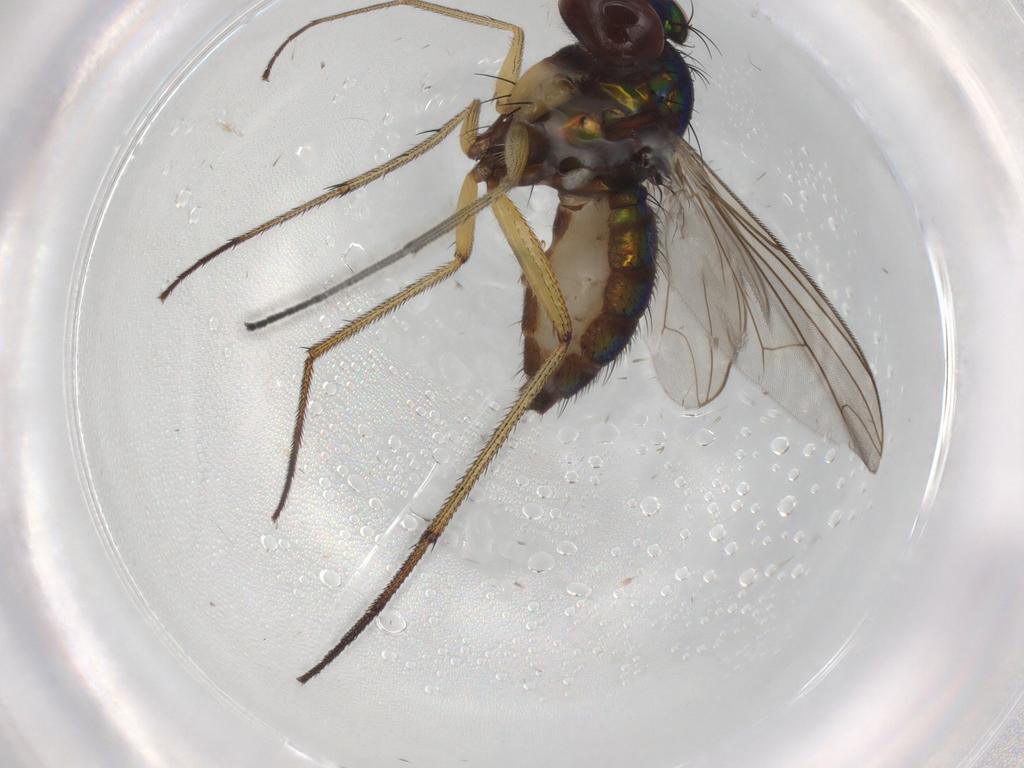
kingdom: Animalia
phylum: Arthropoda
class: Insecta
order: Diptera
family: Dolichopodidae
